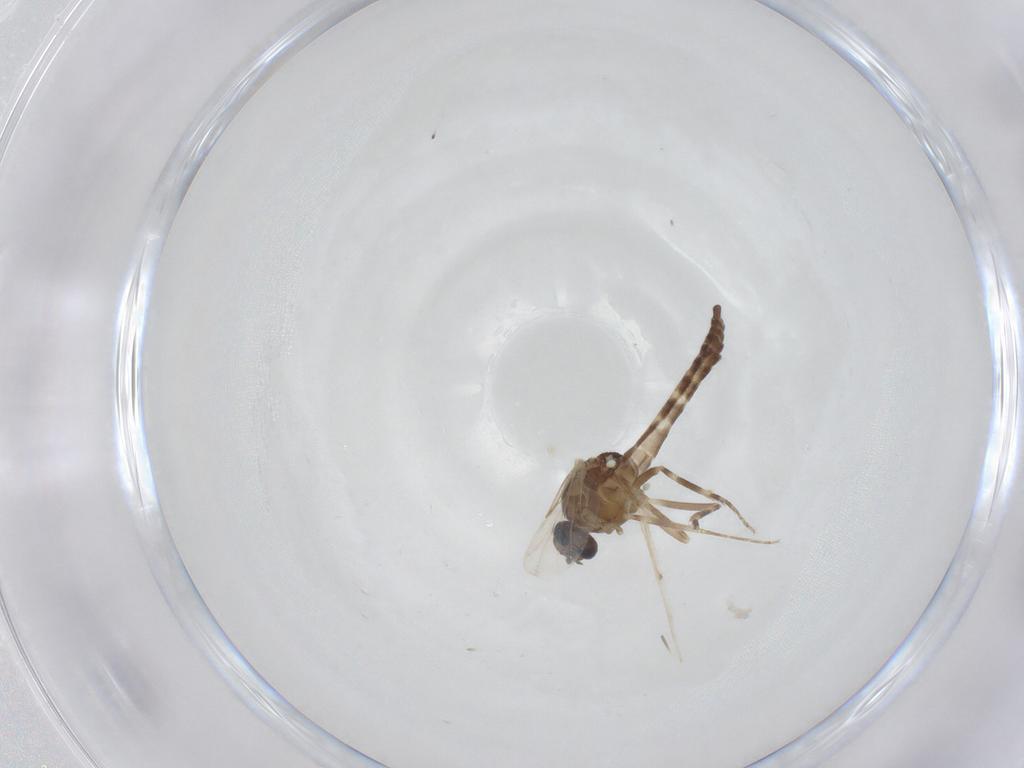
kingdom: Animalia
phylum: Arthropoda
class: Insecta
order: Diptera
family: Ceratopogonidae
